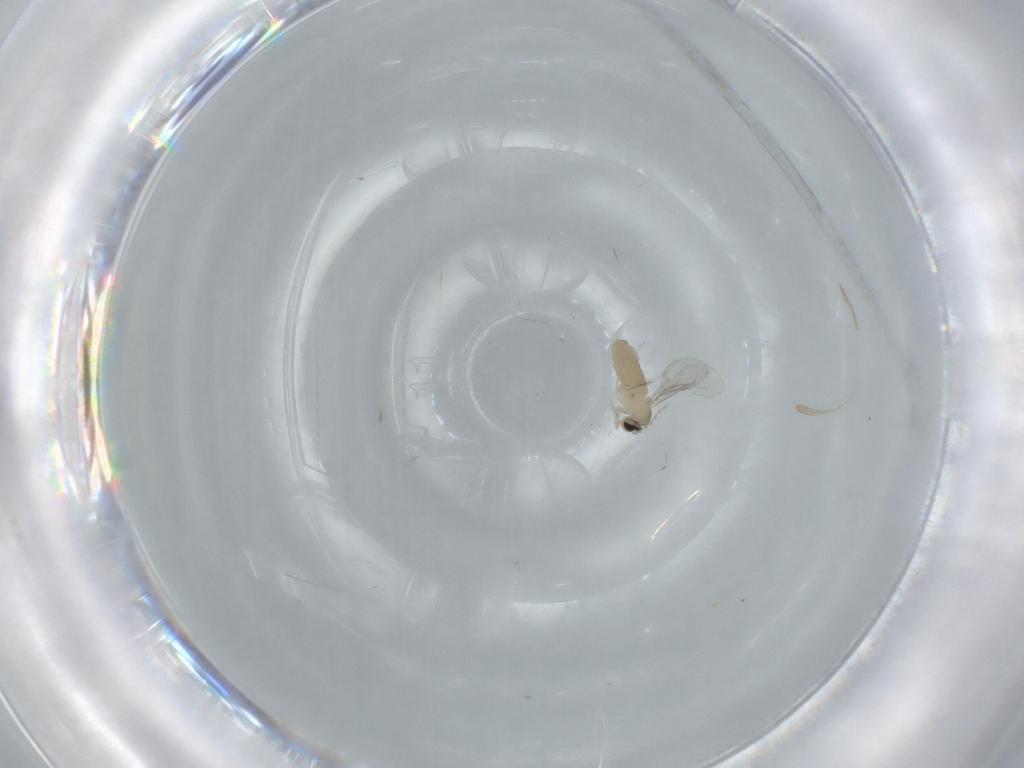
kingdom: Animalia
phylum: Arthropoda
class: Insecta
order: Diptera
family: Cecidomyiidae
